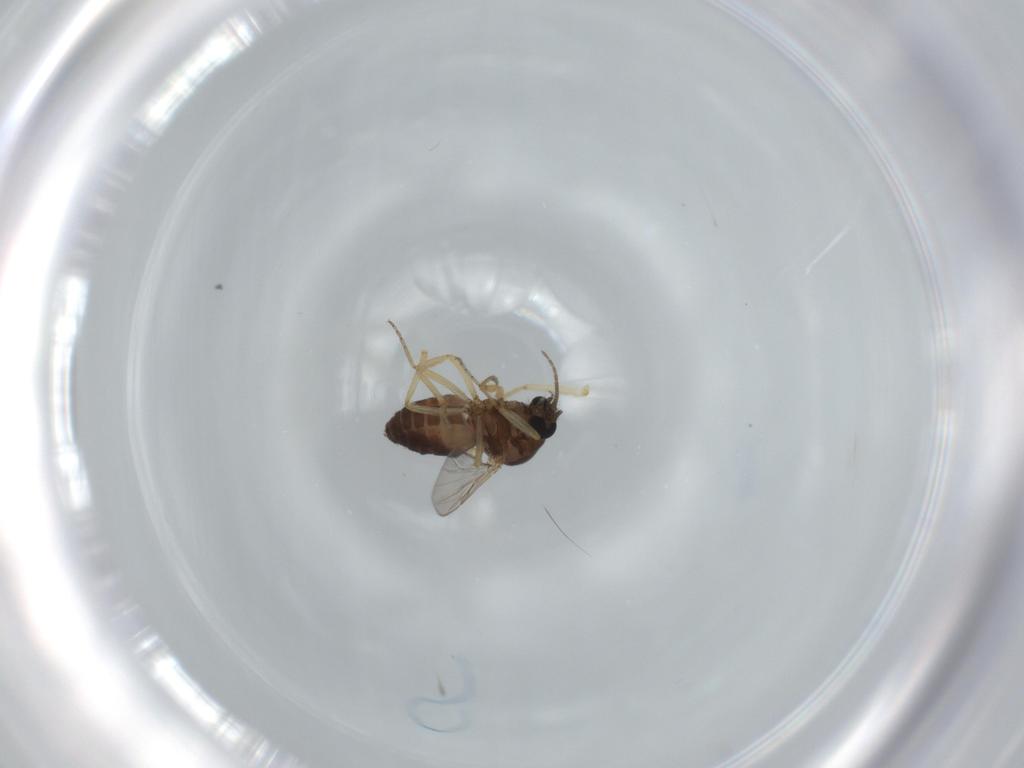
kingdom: Animalia
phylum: Arthropoda
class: Insecta
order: Diptera
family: Ceratopogonidae
